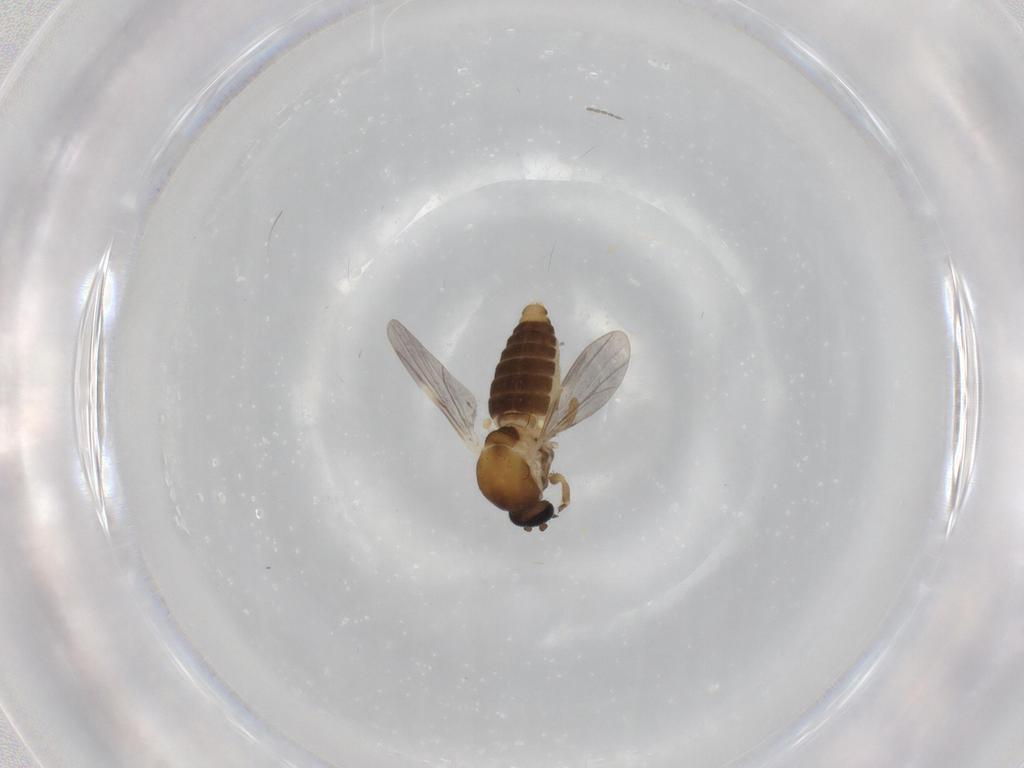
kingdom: Animalia
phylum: Arthropoda
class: Insecta
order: Diptera
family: Ceratopogonidae
